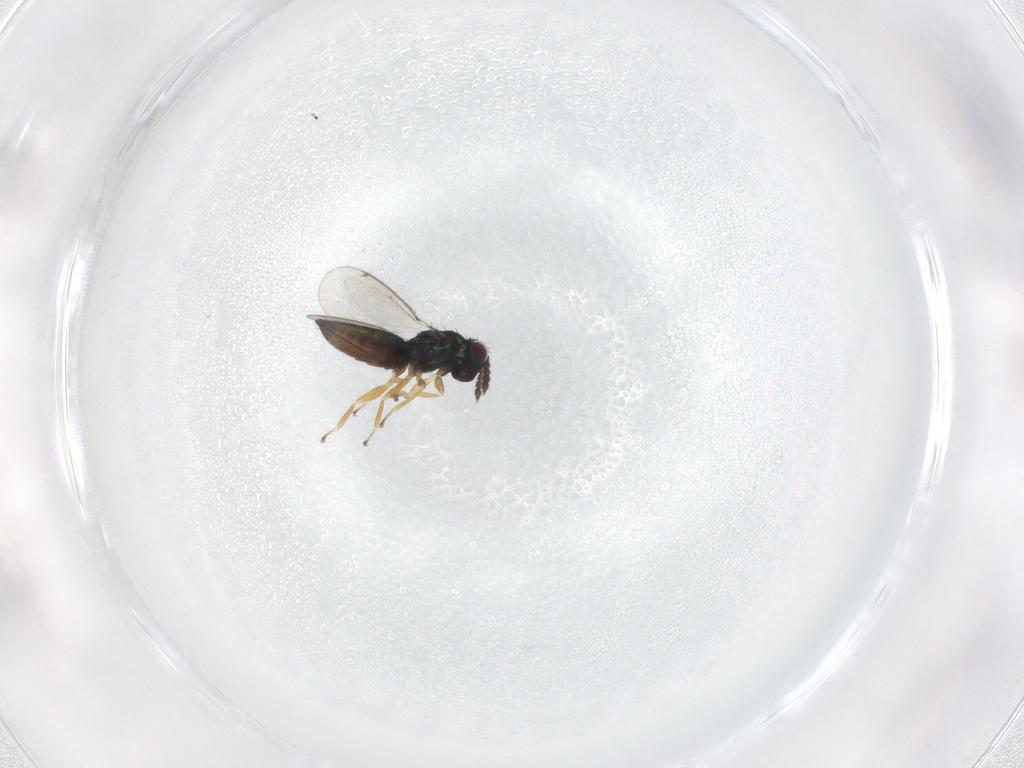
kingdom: Animalia
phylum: Arthropoda
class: Insecta
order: Hymenoptera
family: Eulophidae
